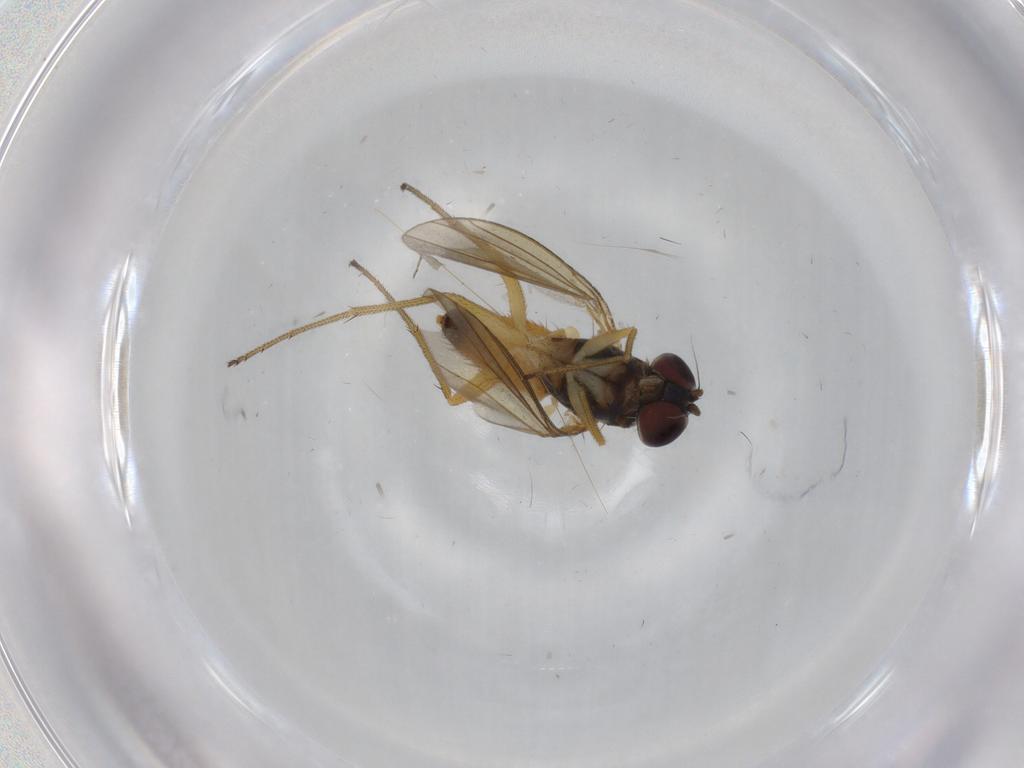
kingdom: Animalia
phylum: Arthropoda
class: Insecta
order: Diptera
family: Dolichopodidae
